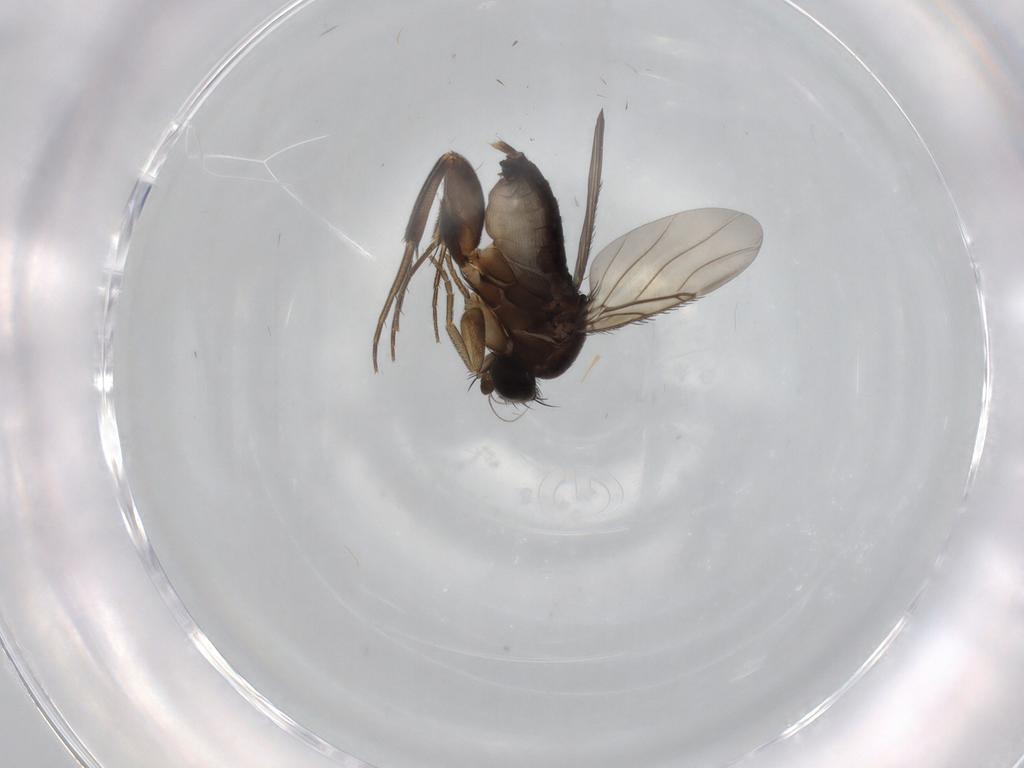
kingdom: Animalia
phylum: Arthropoda
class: Insecta
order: Diptera
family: Phoridae
